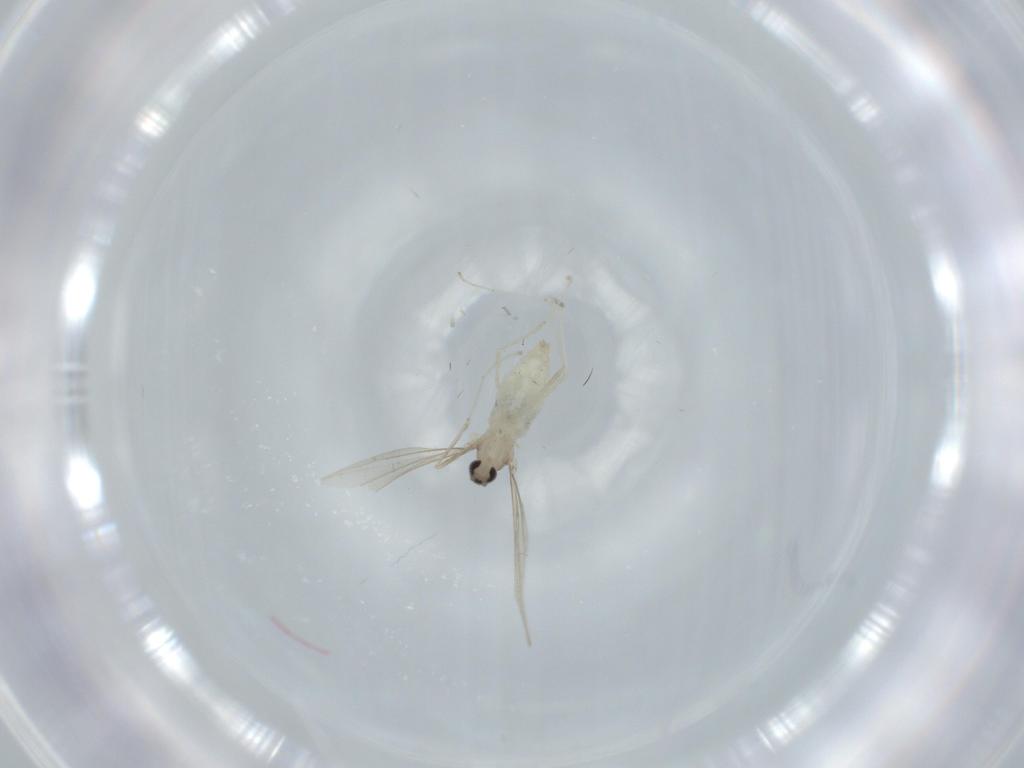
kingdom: Animalia
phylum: Arthropoda
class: Insecta
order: Diptera
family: Cecidomyiidae
